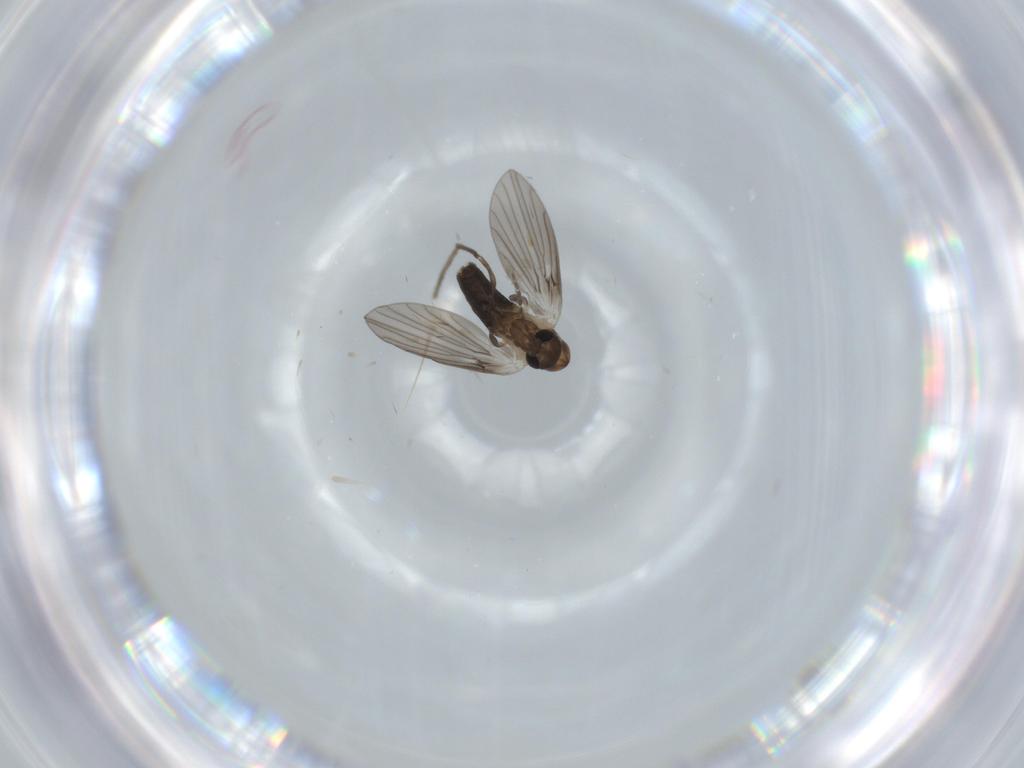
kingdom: Animalia
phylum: Arthropoda
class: Insecta
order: Diptera
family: Psychodidae
